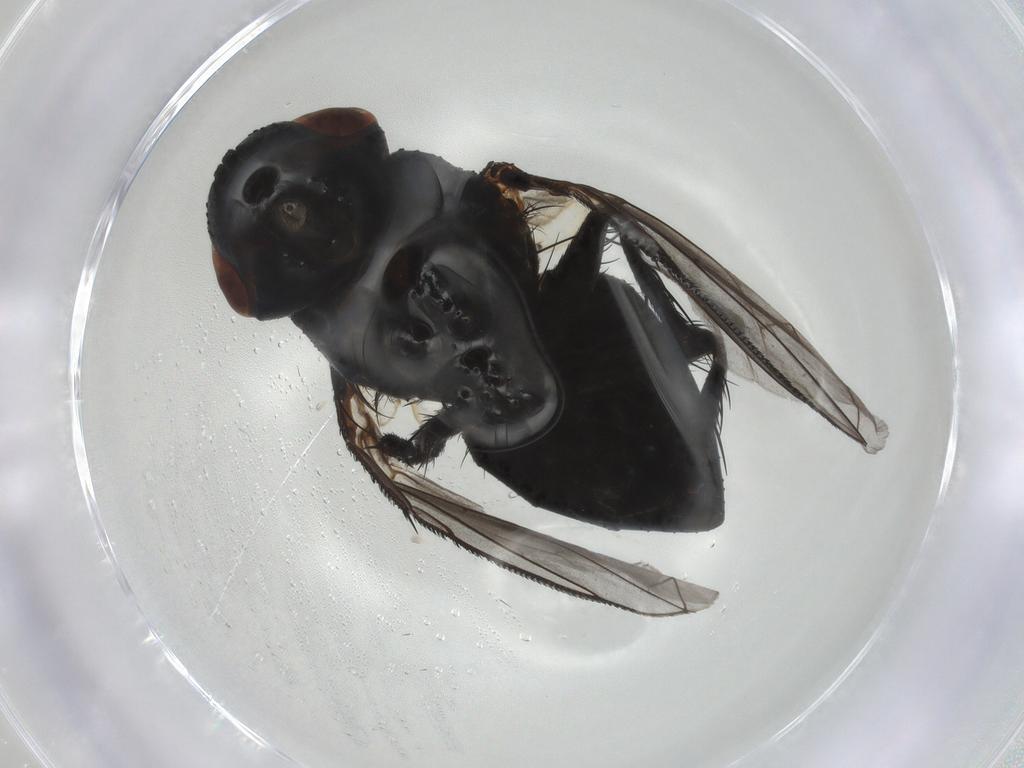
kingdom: Animalia
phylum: Arthropoda
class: Insecta
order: Diptera
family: Tachinidae
